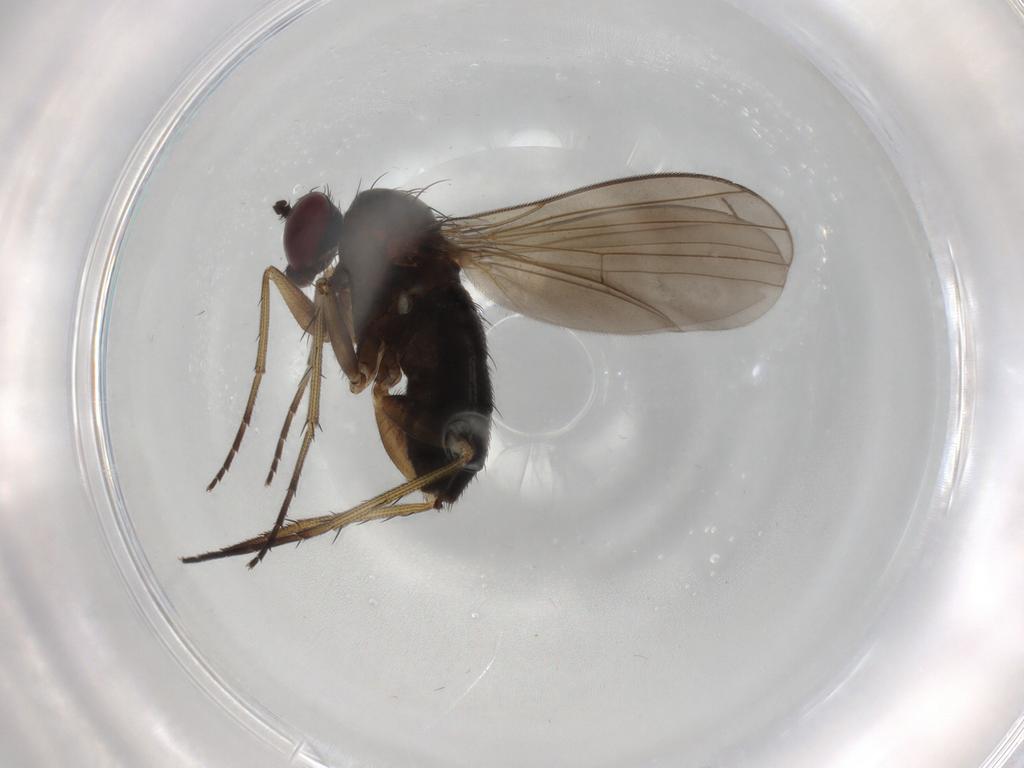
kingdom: Animalia
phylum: Arthropoda
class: Insecta
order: Diptera
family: Dolichopodidae
